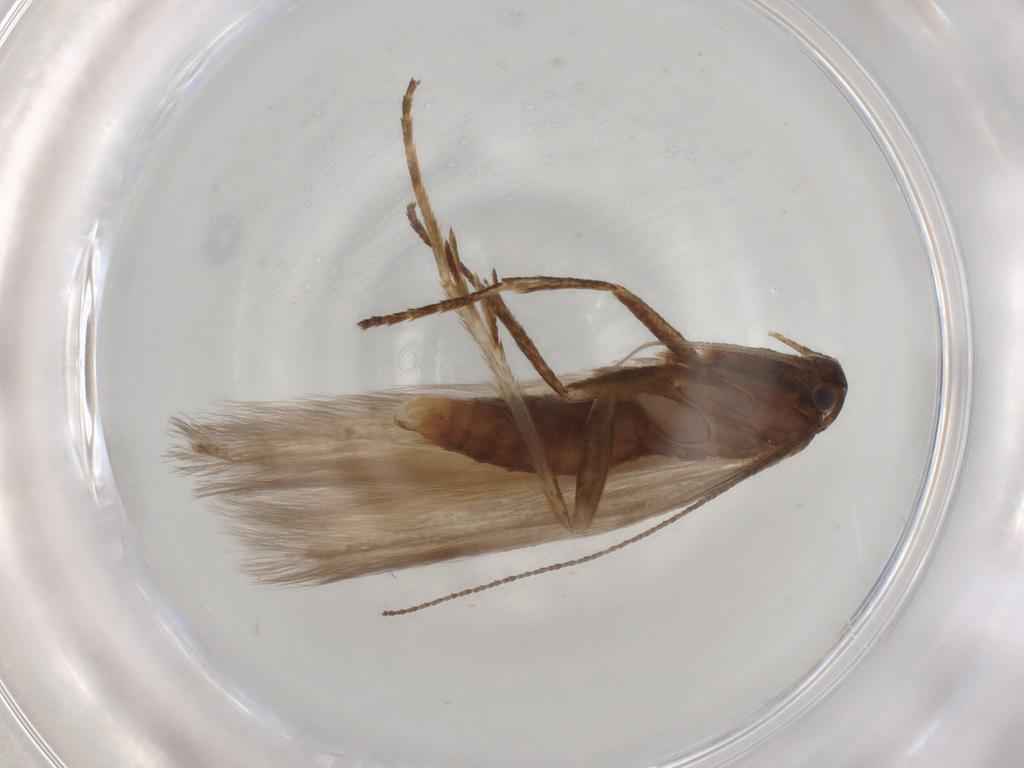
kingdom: Animalia
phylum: Arthropoda
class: Insecta
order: Lepidoptera
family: Erebidae
